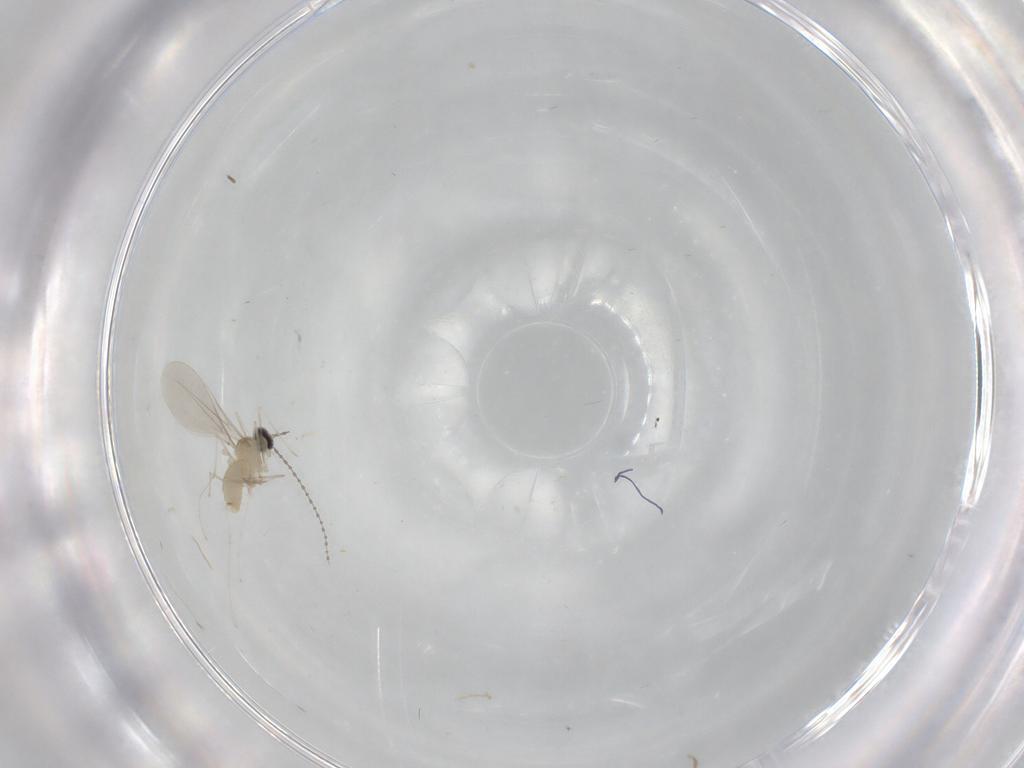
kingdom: Animalia
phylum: Arthropoda
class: Insecta
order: Diptera
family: Cecidomyiidae
